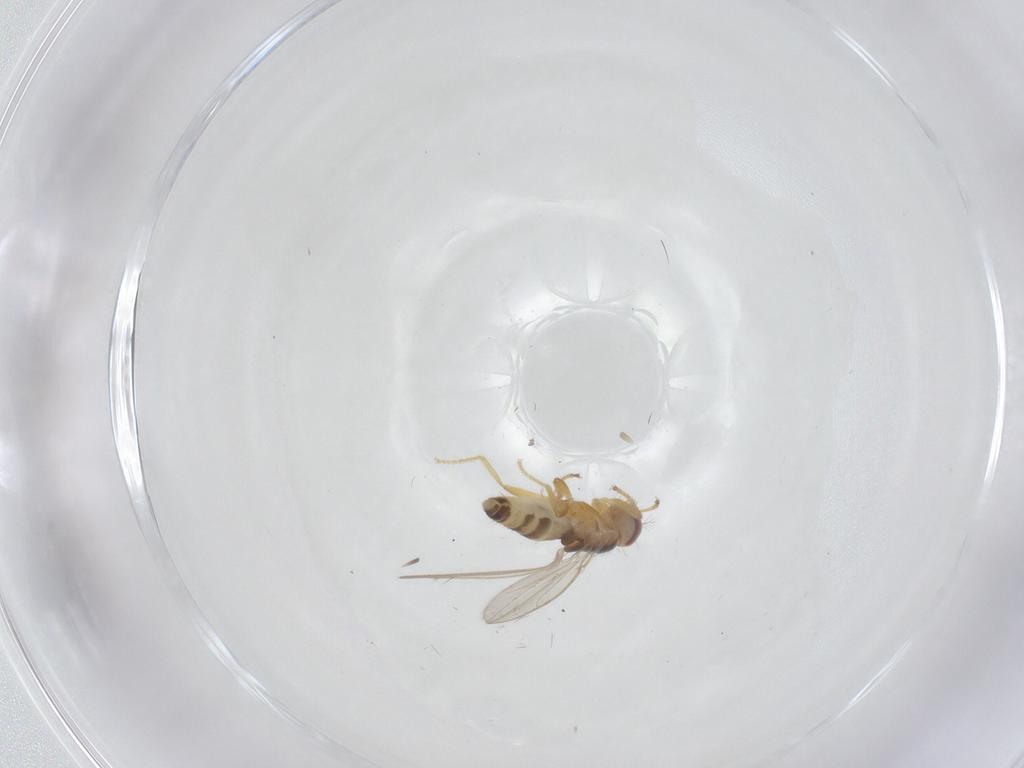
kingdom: Animalia
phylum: Arthropoda
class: Insecta
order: Diptera
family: Periscelididae
